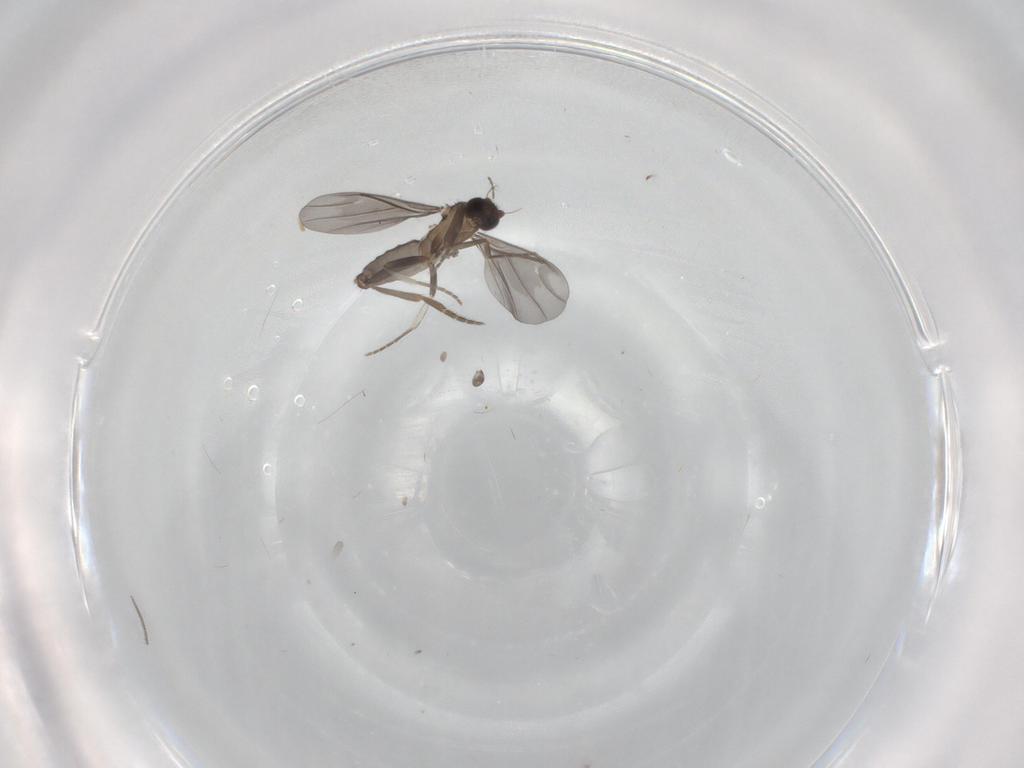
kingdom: Animalia
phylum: Arthropoda
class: Insecta
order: Diptera
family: Phoridae
